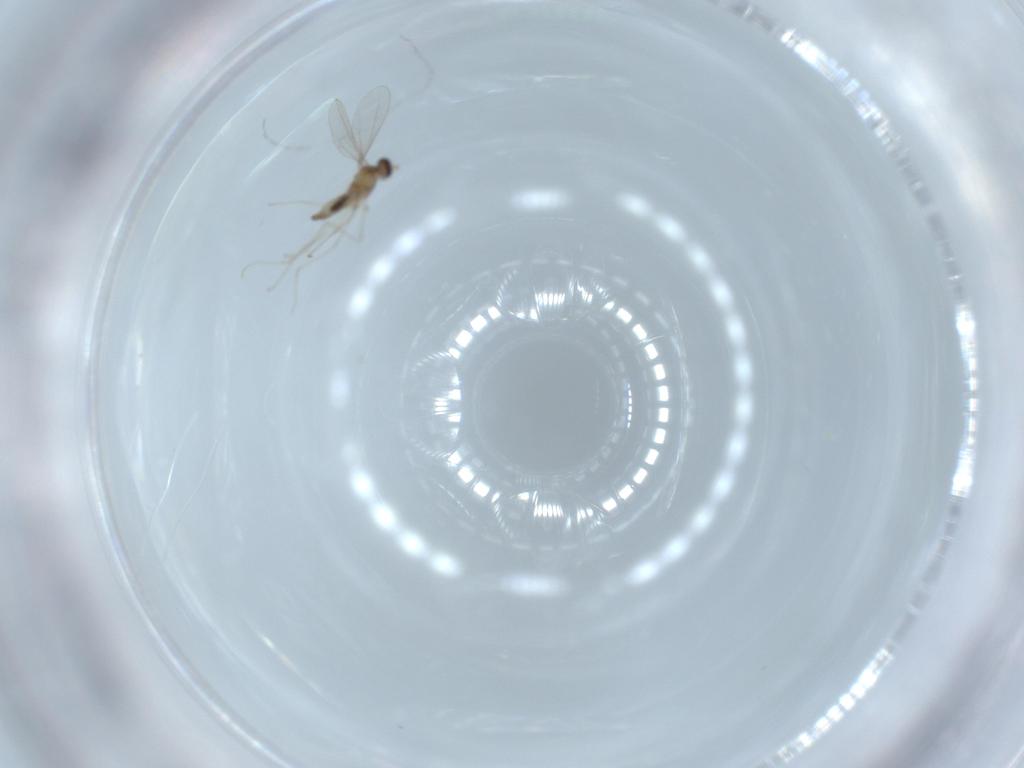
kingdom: Animalia
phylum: Arthropoda
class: Insecta
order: Diptera
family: Cecidomyiidae
